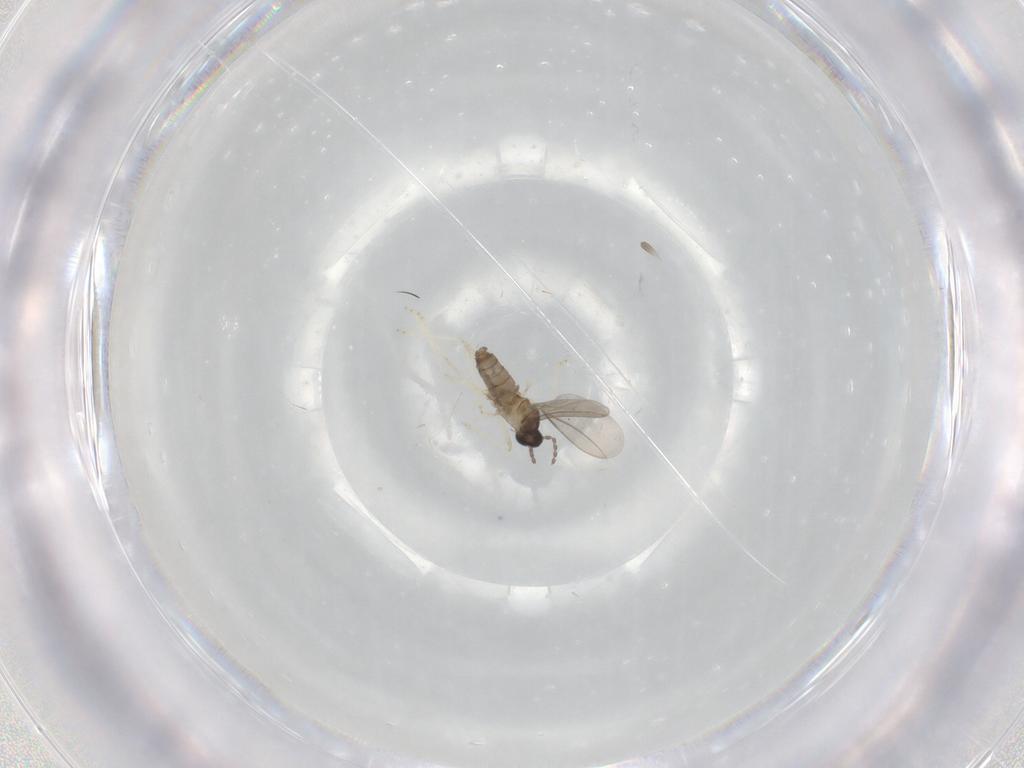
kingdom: Animalia
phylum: Arthropoda
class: Insecta
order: Diptera
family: Cecidomyiidae
